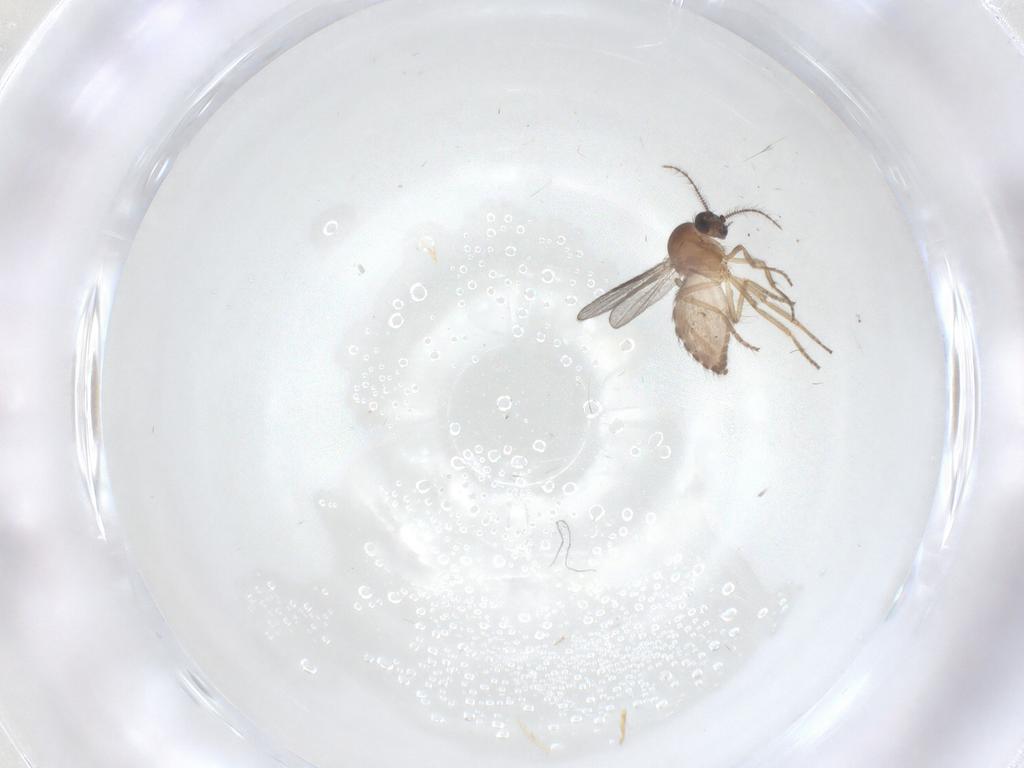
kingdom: Animalia
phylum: Arthropoda
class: Insecta
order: Diptera
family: Ceratopogonidae
